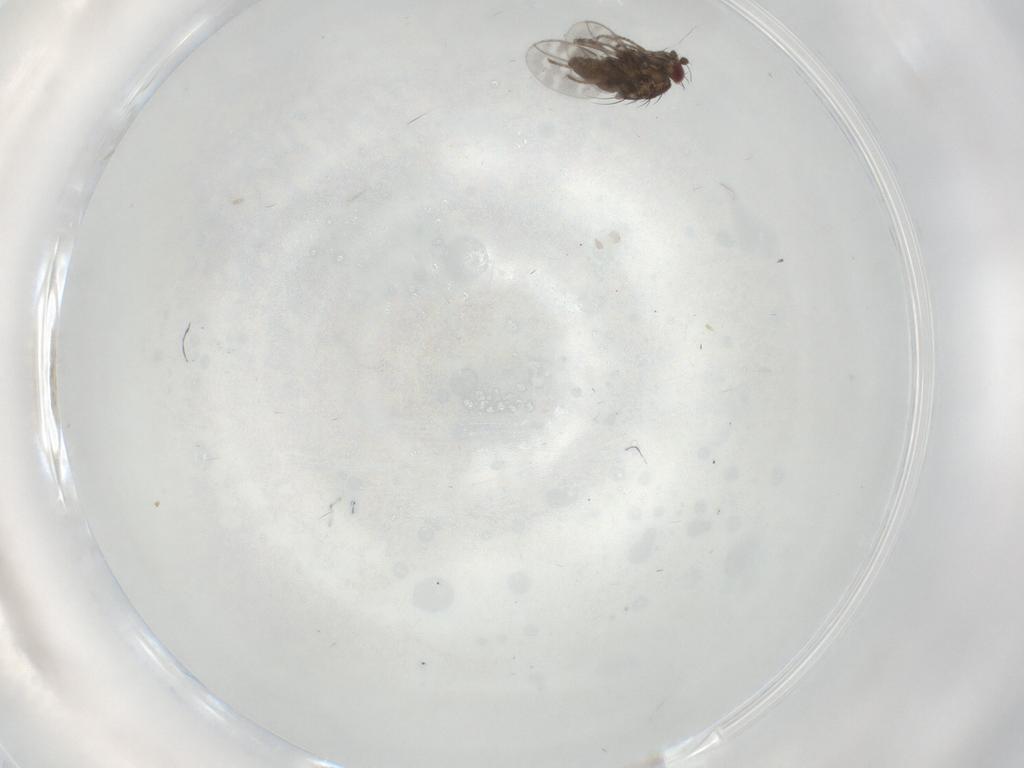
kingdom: Animalia
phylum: Arthropoda
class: Insecta
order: Diptera
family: Sphaeroceridae
